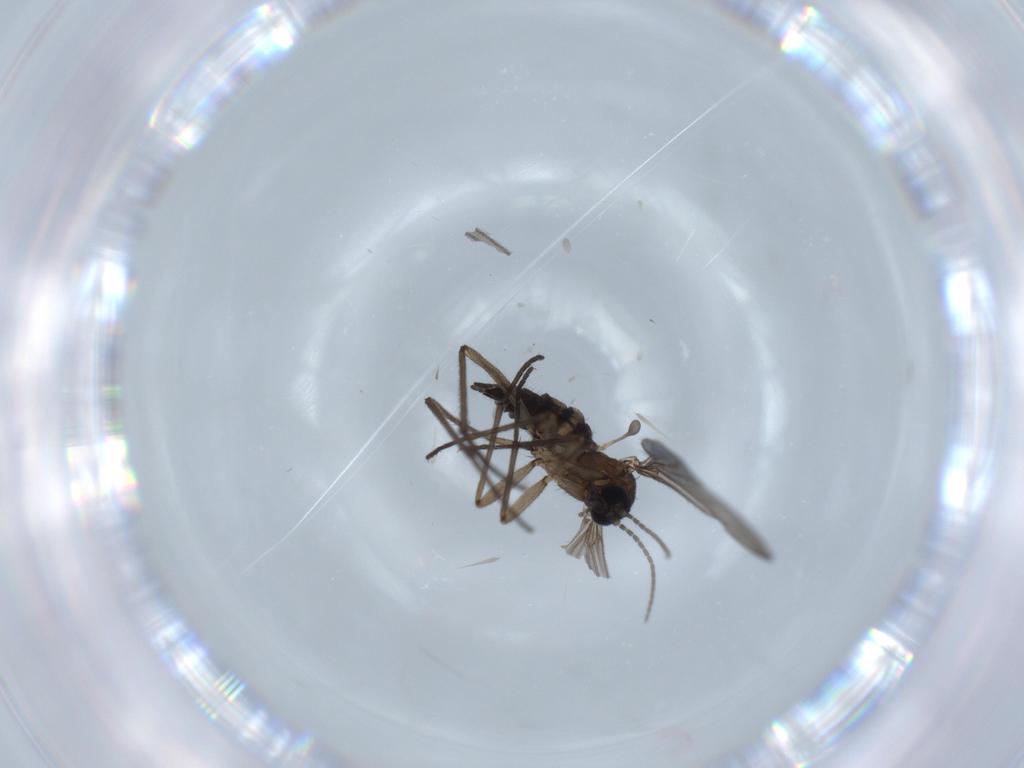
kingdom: Animalia
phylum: Arthropoda
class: Insecta
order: Diptera
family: Sciaridae
